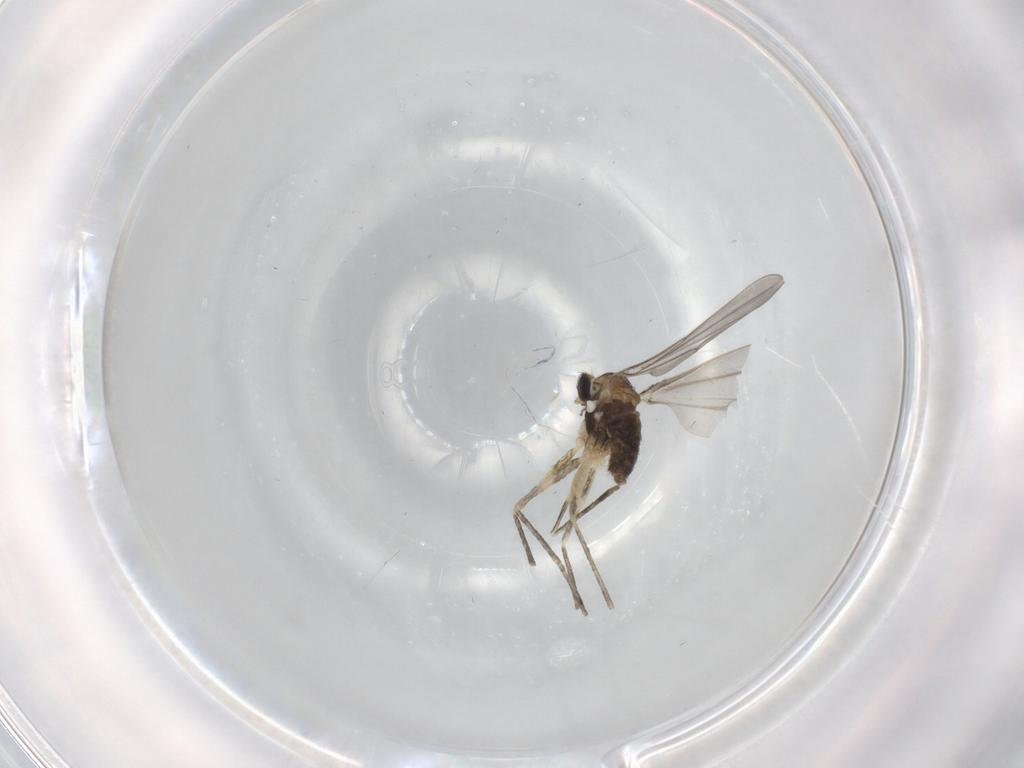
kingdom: Animalia
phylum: Arthropoda
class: Insecta
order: Diptera
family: Cecidomyiidae
